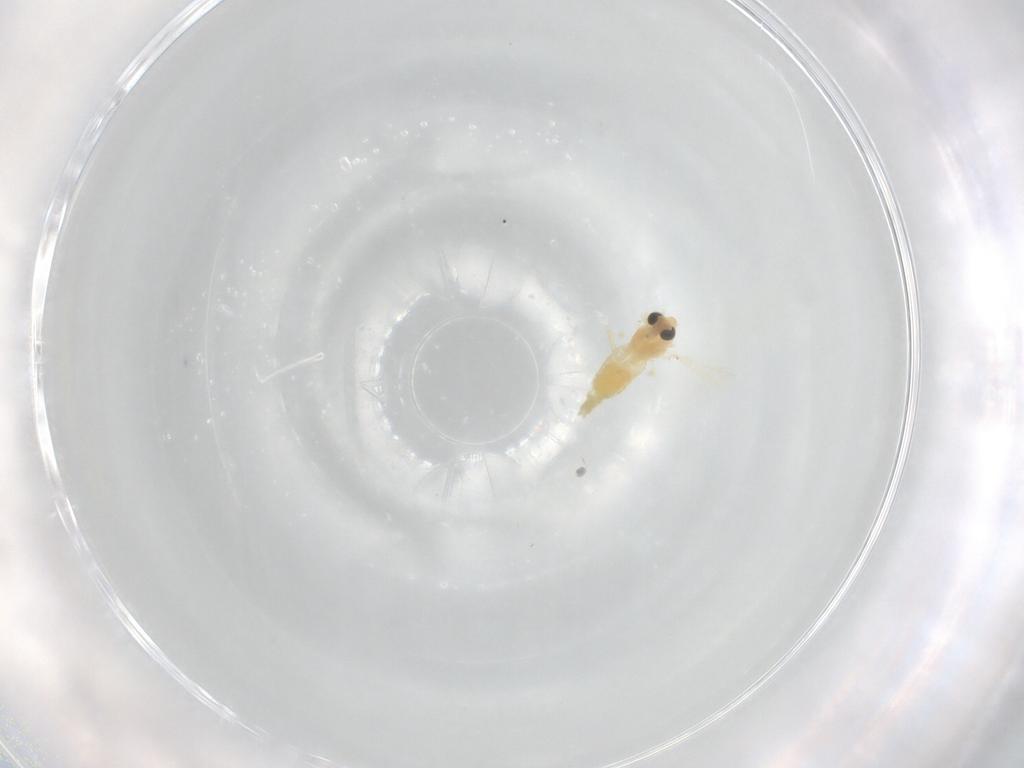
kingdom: Animalia
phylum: Arthropoda
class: Insecta
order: Diptera
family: Chironomidae
